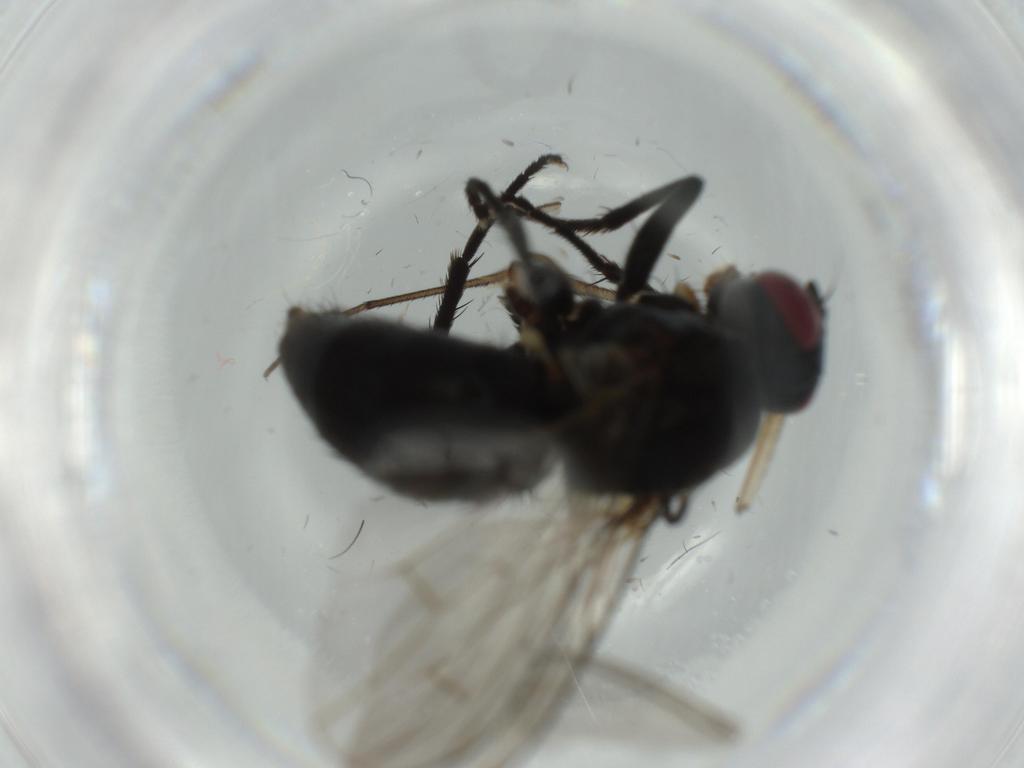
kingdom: Animalia
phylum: Arthropoda
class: Insecta
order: Diptera
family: Phoridae
